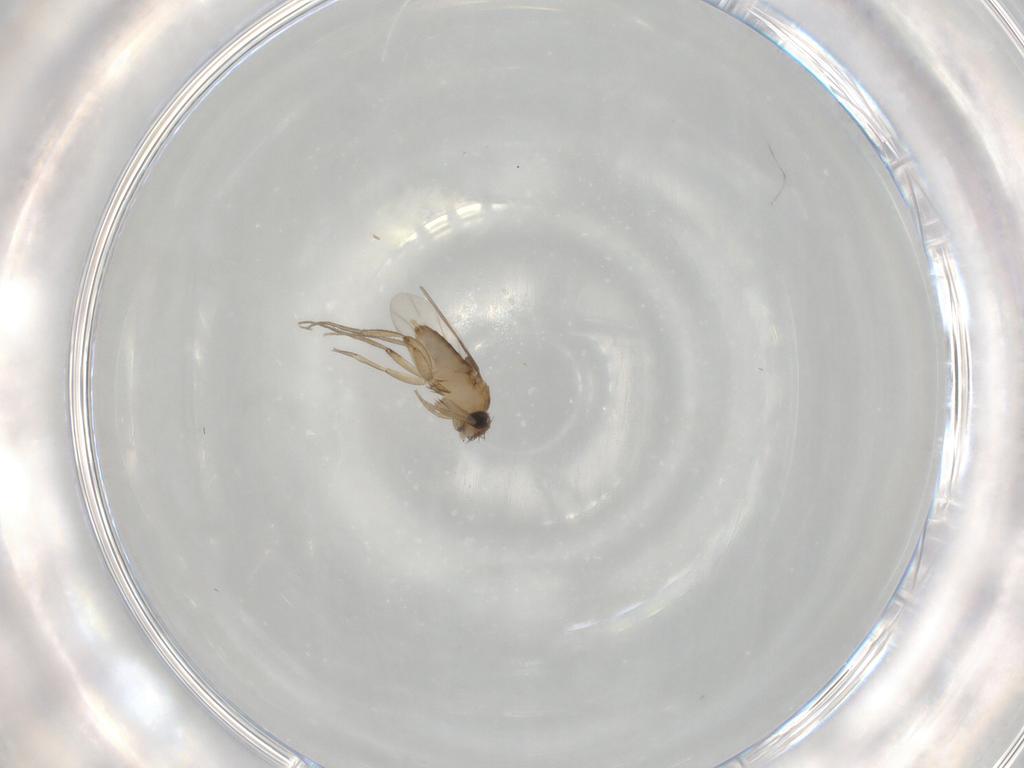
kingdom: Animalia
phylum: Arthropoda
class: Insecta
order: Diptera
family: Phoridae
